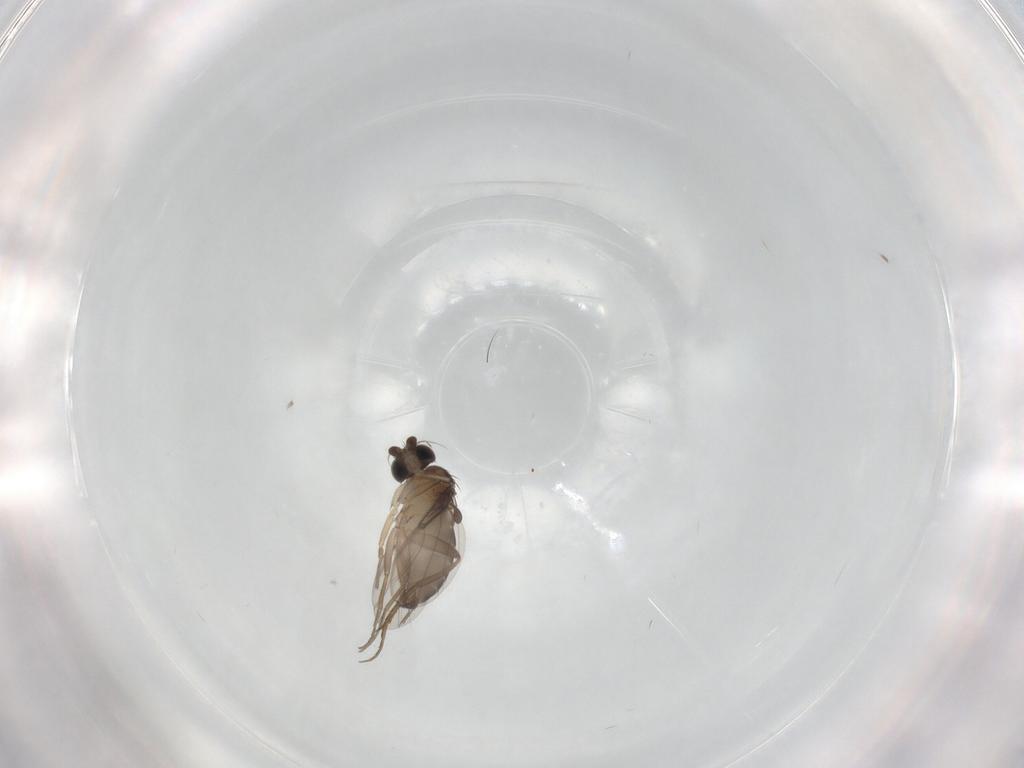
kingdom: Animalia
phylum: Arthropoda
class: Insecta
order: Diptera
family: Phoridae
